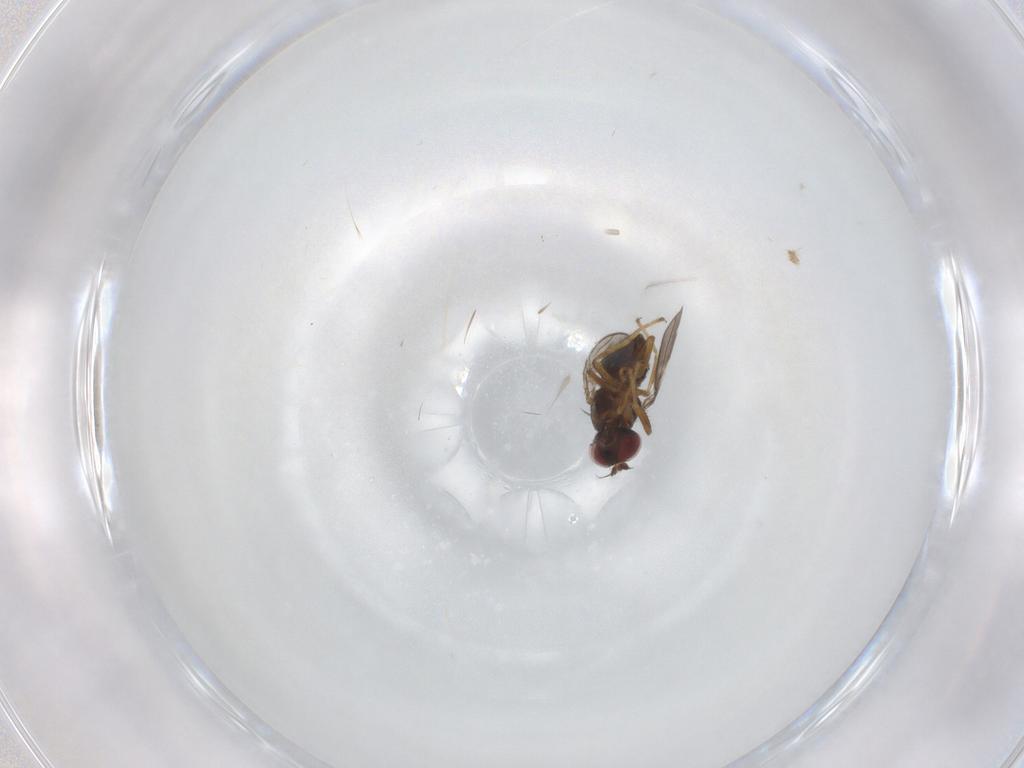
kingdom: Animalia
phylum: Arthropoda
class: Insecta
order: Diptera
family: Ephydridae
